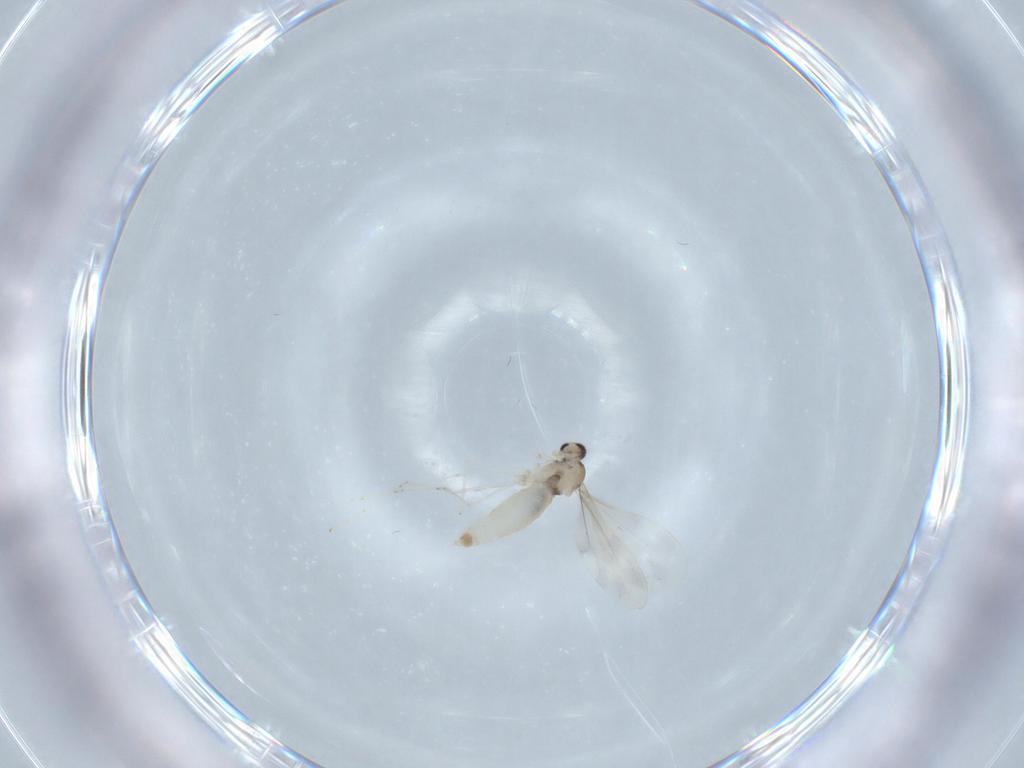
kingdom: Animalia
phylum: Arthropoda
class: Insecta
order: Diptera
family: Cecidomyiidae
